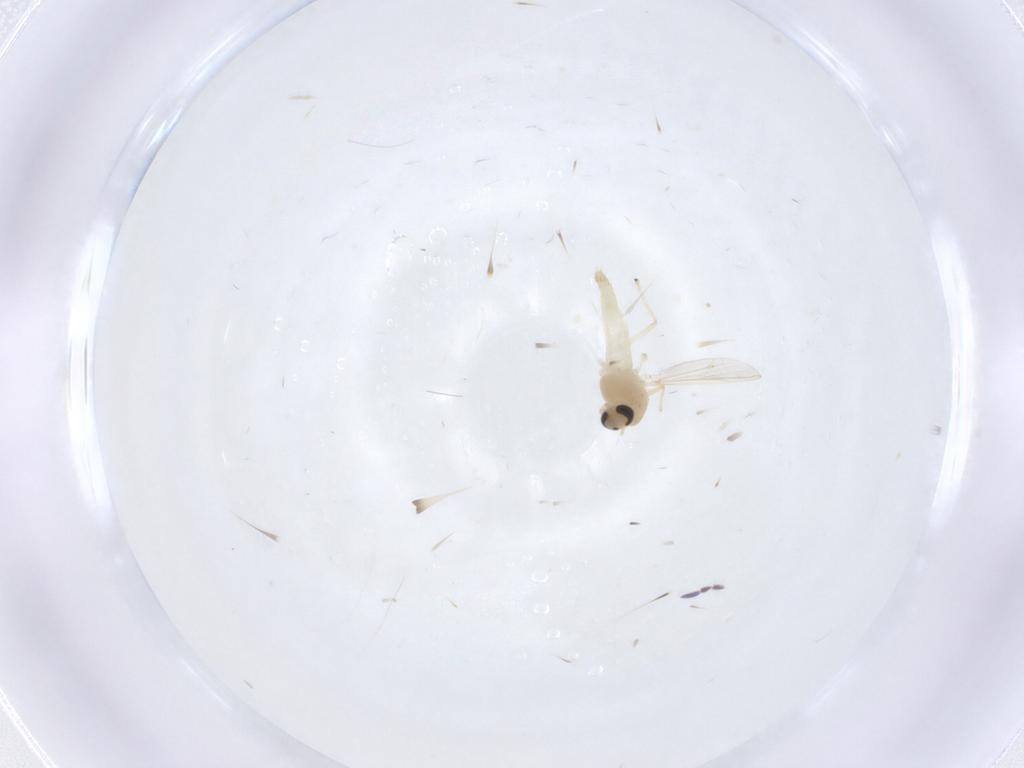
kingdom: Animalia
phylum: Arthropoda
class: Insecta
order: Diptera
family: Chironomidae
